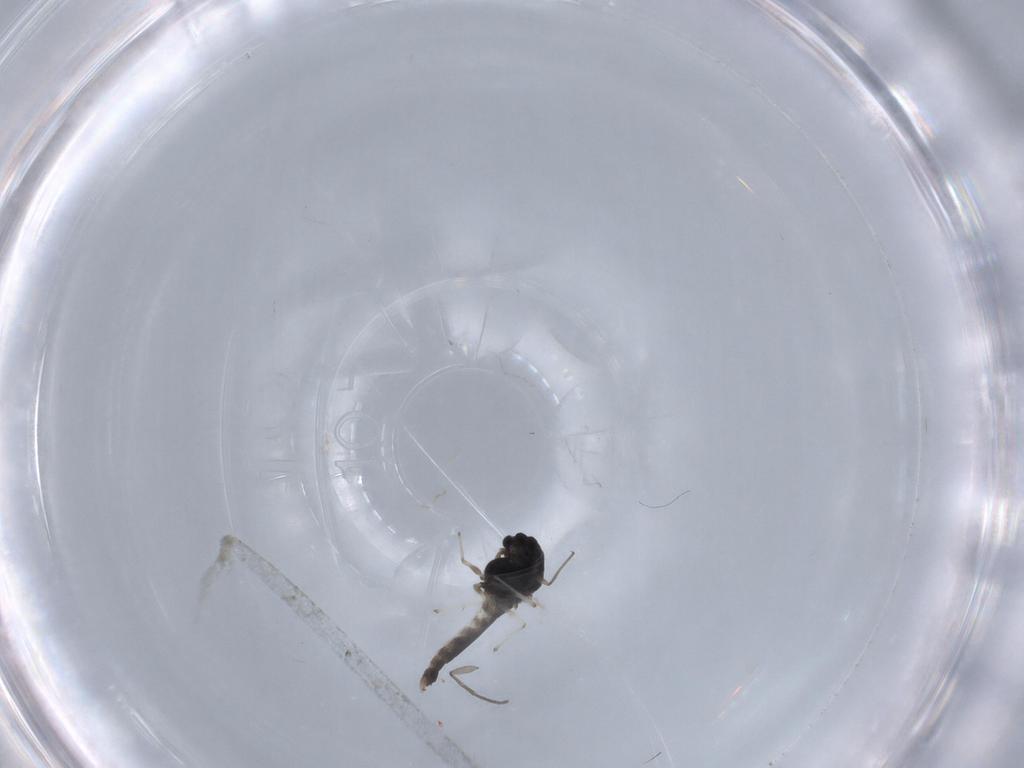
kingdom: Animalia
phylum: Arthropoda
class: Insecta
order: Diptera
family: Chironomidae
